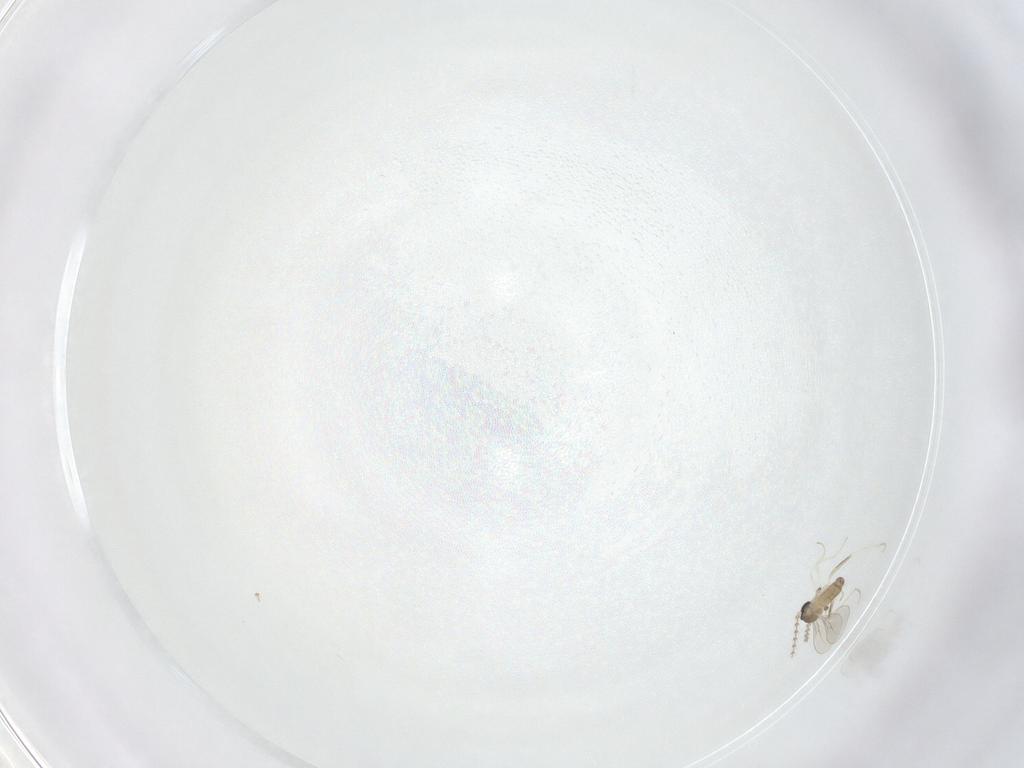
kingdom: Animalia
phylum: Arthropoda
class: Insecta
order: Diptera
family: Cecidomyiidae
